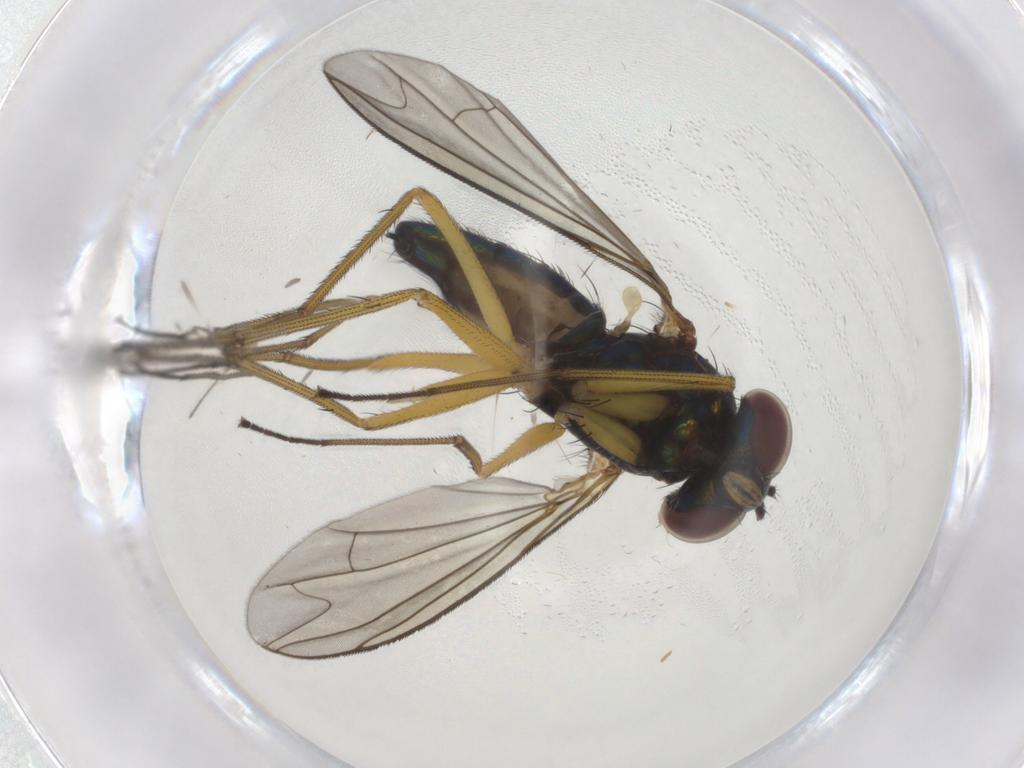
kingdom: Animalia
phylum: Arthropoda
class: Insecta
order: Diptera
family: Dolichopodidae
